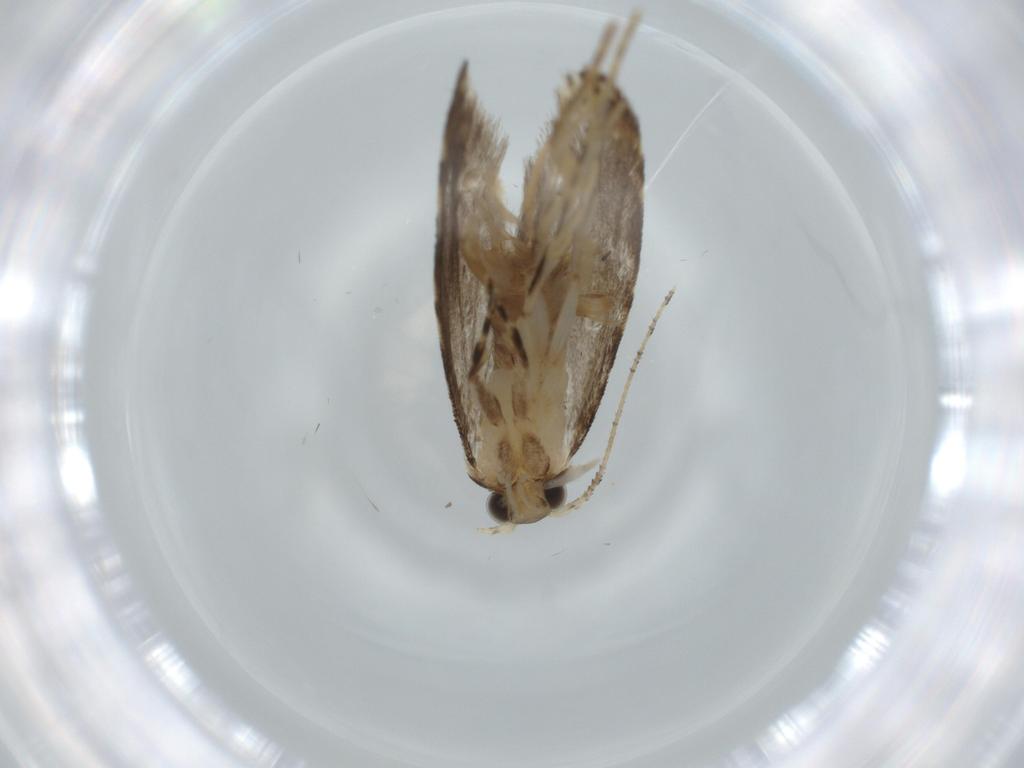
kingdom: Animalia
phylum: Arthropoda
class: Insecta
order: Lepidoptera
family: Tineidae
